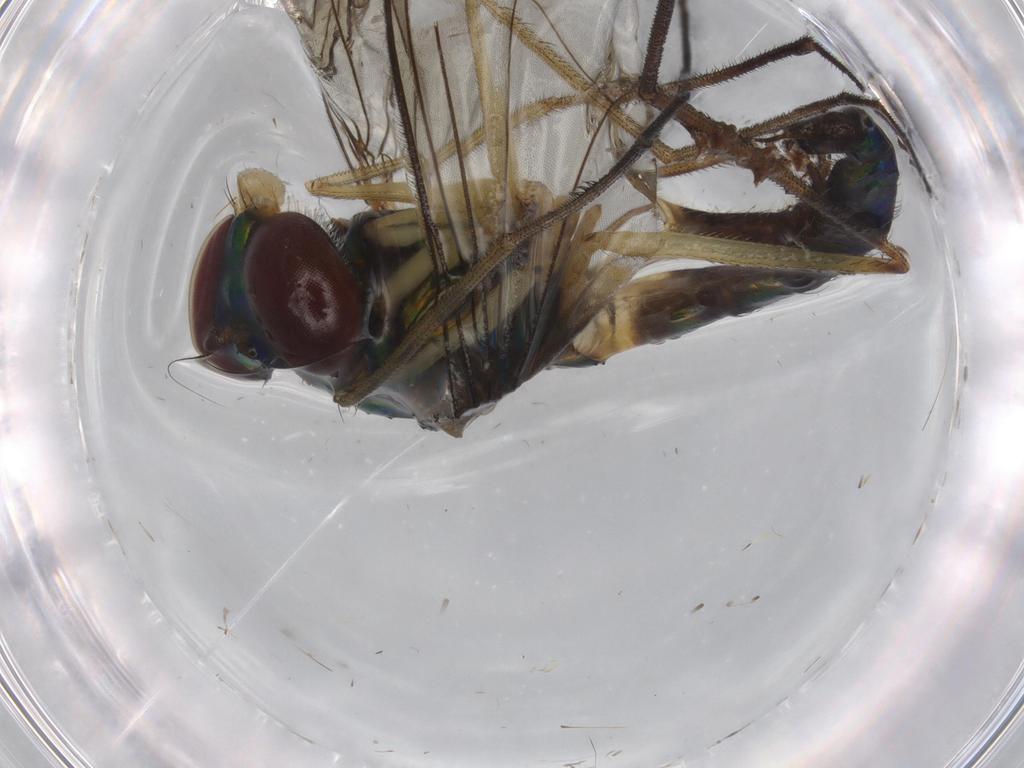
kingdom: Animalia
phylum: Arthropoda
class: Insecta
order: Diptera
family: Dolichopodidae
